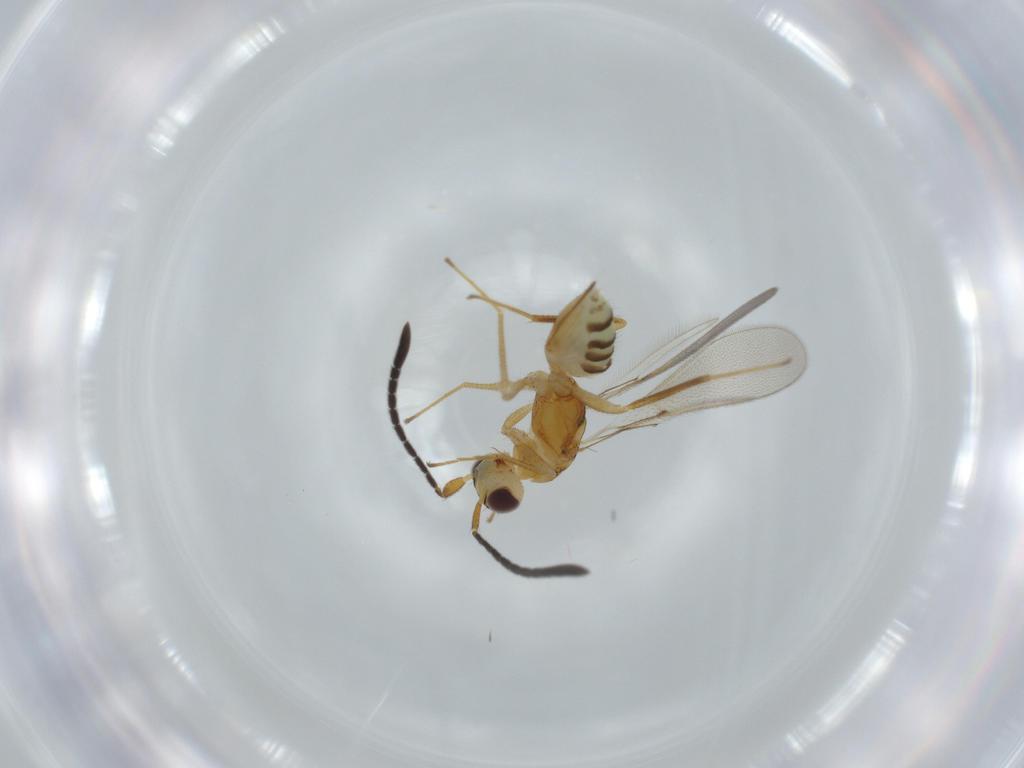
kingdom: Animalia
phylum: Arthropoda
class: Insecta
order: Hymenoptera
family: Mymaridae
